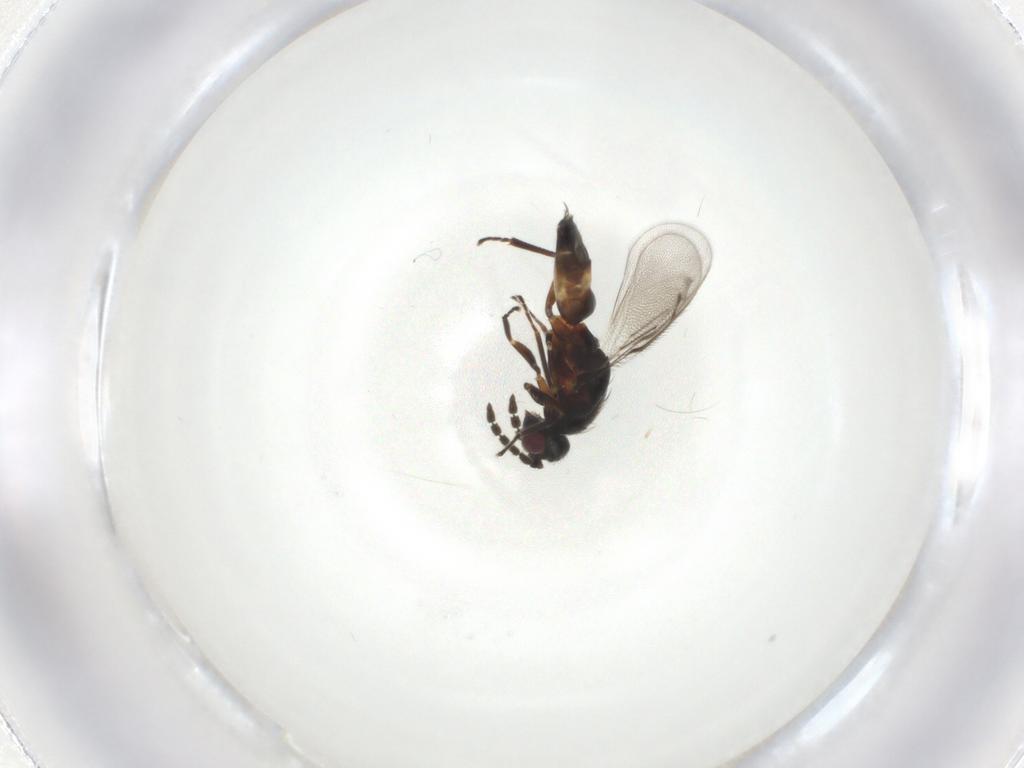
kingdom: Animalia
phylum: Arthropoda
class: Insecta
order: Hymenoptera
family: Eulophidae
